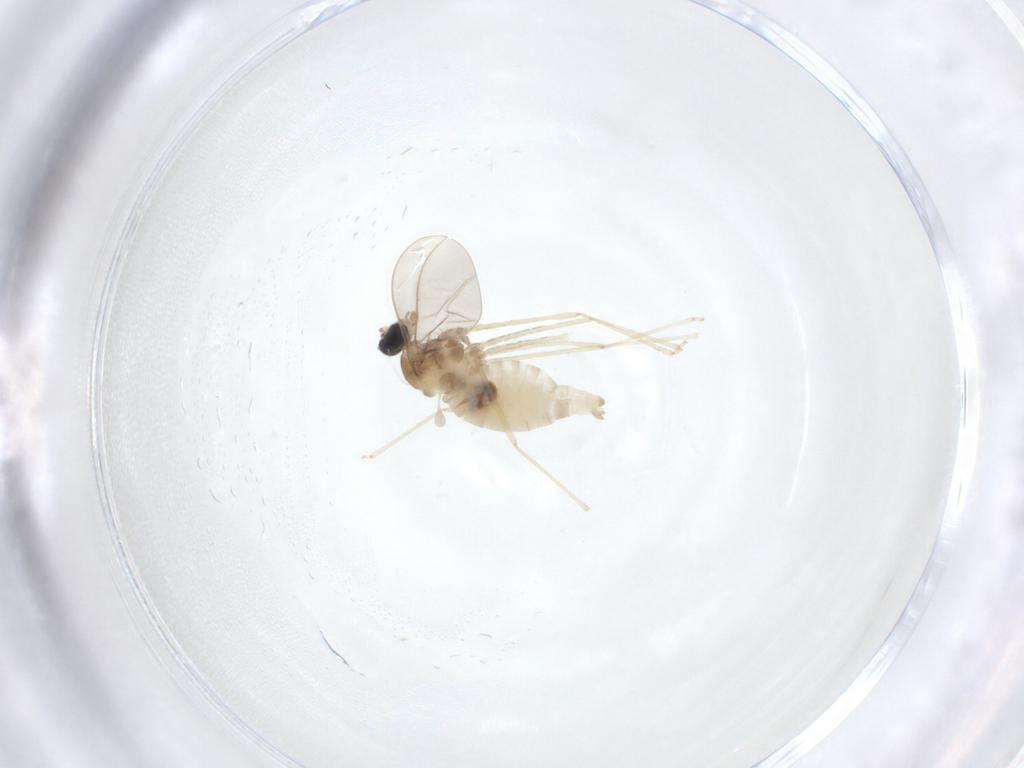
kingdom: Animalia
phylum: Arthropoda
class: Insecta
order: Diptera
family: Cecidomyiidae
